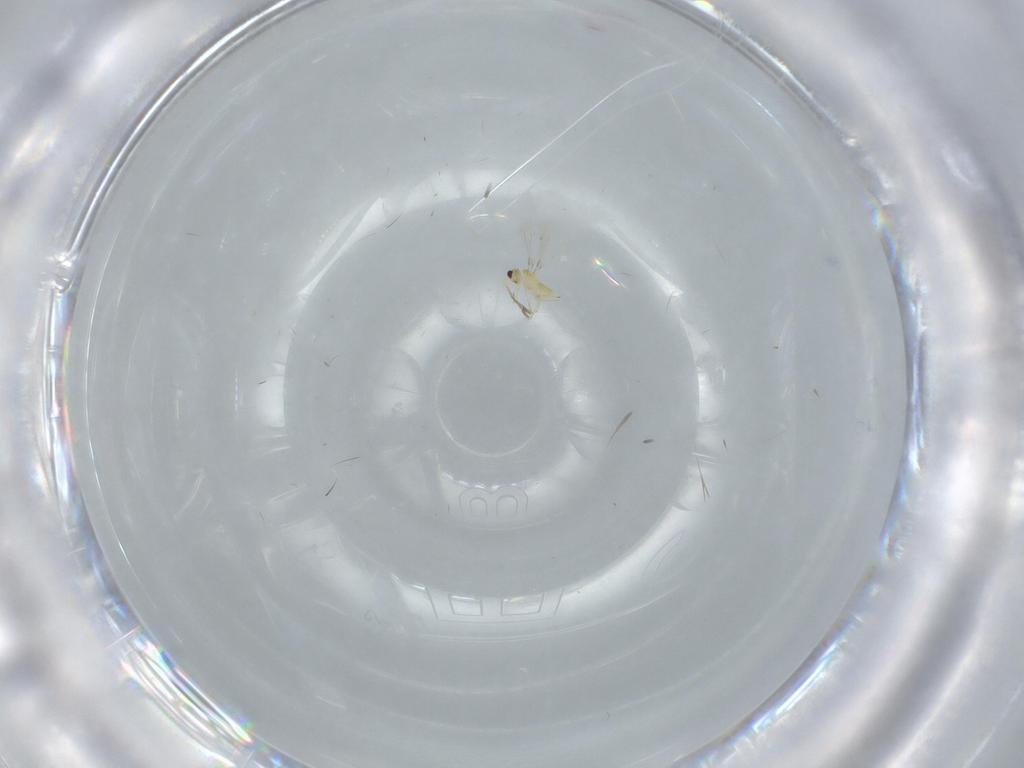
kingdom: Animalia
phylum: Arthropoda
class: Insecta
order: Hymenoptera
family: Mymaridae
